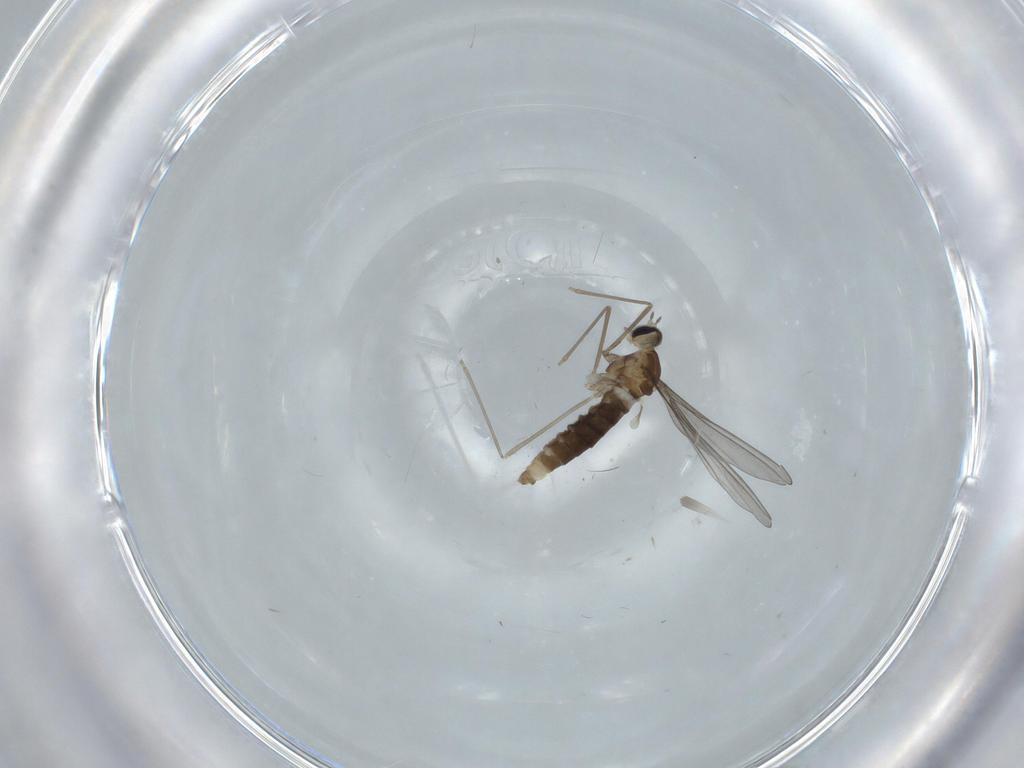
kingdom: Animalia
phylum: Arthropoda
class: Insecta
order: Diptera
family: Cecidomyiidae
